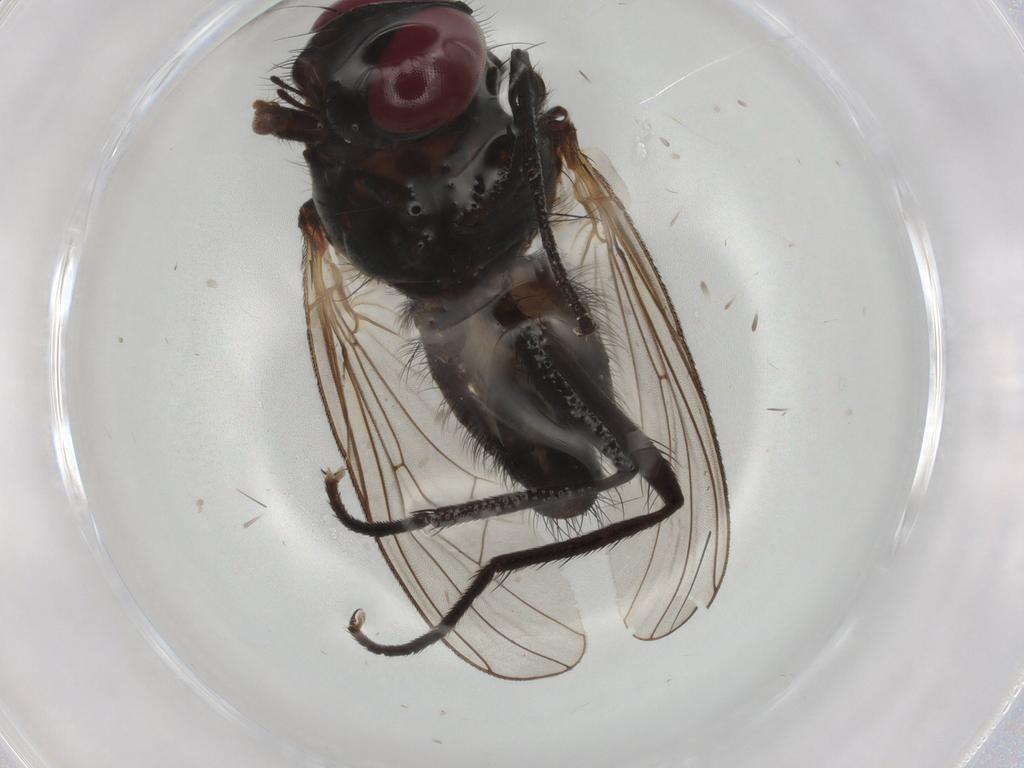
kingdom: Animalia
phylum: Arthropoda
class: Insecta
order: Diptera
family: Anthomyiidae
